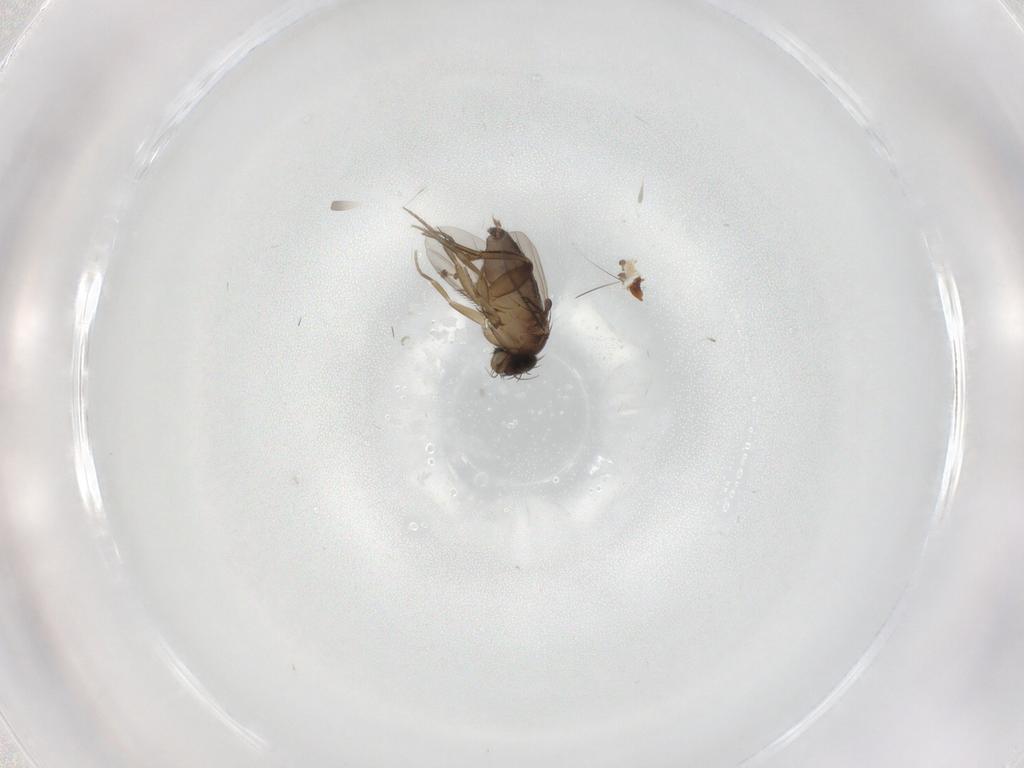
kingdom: Animalia
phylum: Arthropoda
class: Insecta
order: Diptera
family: Phoridae
